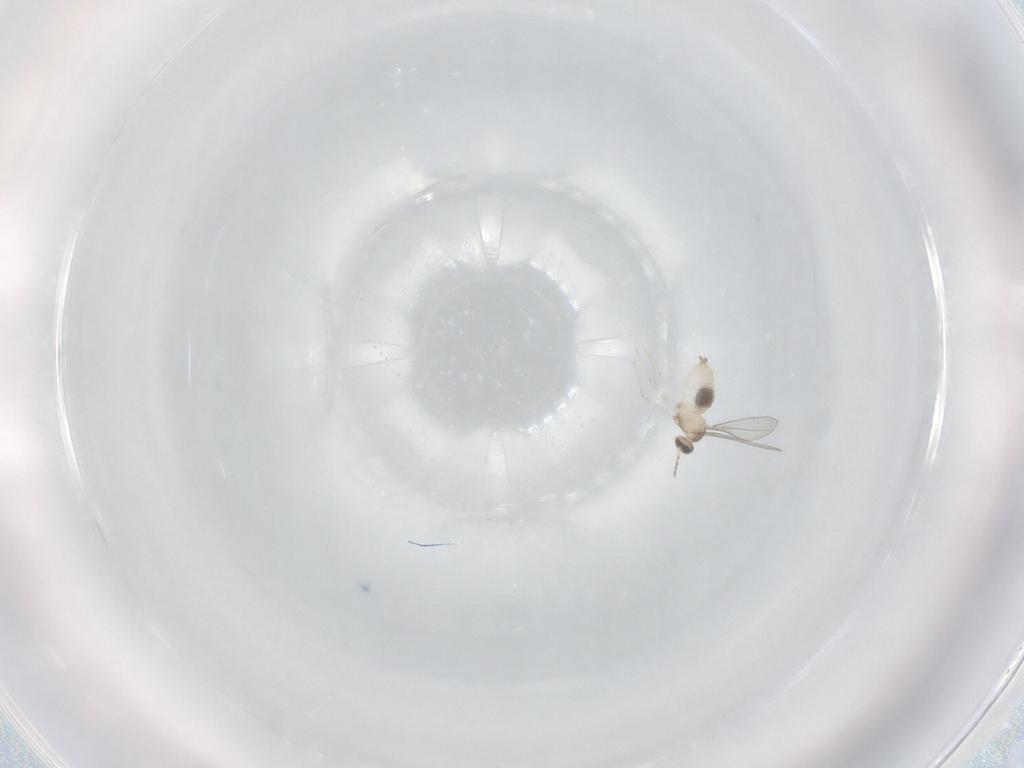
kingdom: Animalia
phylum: Arthropoda
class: Insecta
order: Diptera
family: Cecidomyiidae
